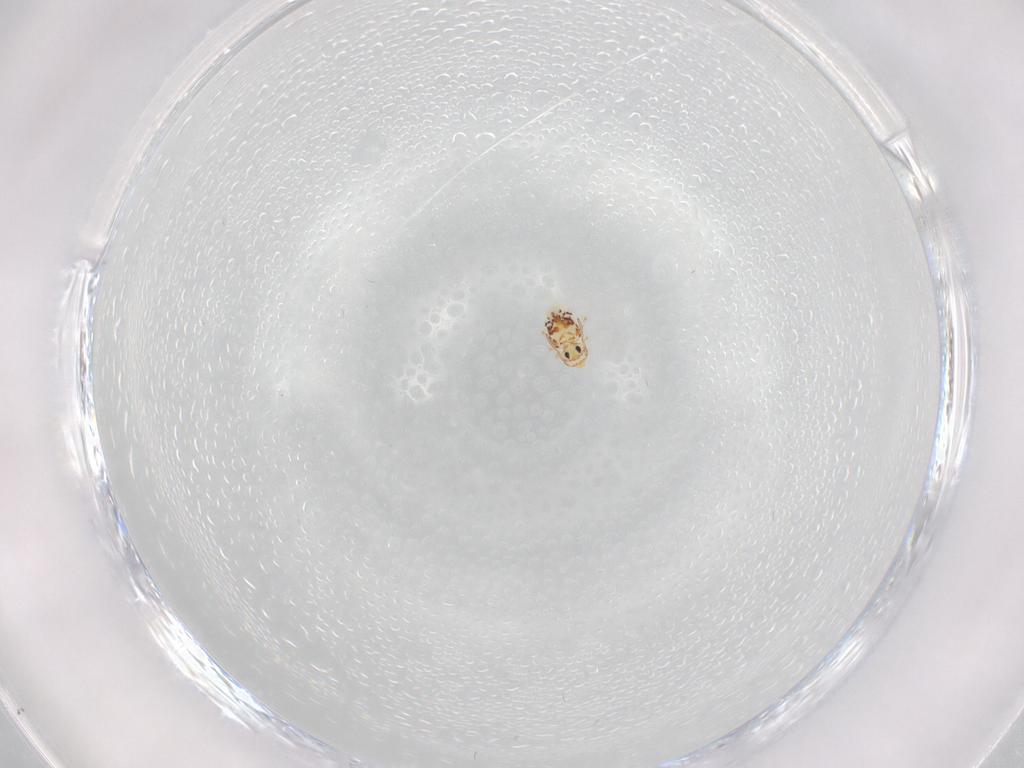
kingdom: Animalia
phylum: Arthropoda
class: Collembola
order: Symphypleona
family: Bourletiellidae
